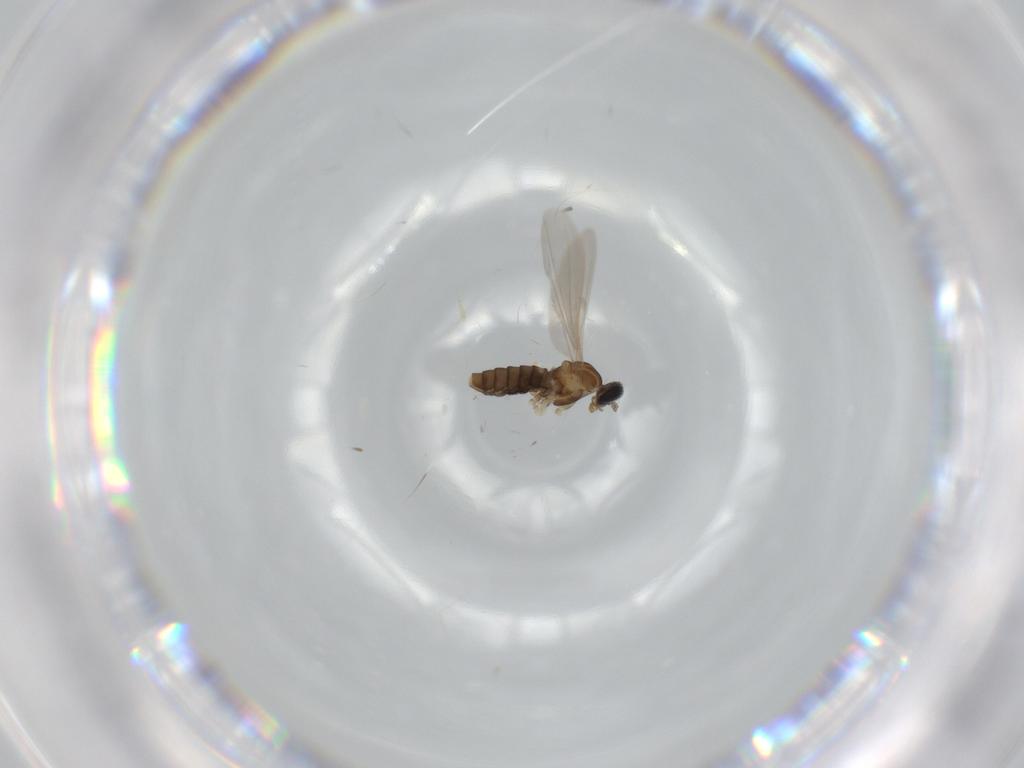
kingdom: Animalia
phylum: Arthropoda
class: Insecta
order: Diptera
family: Cecidomyiidae
